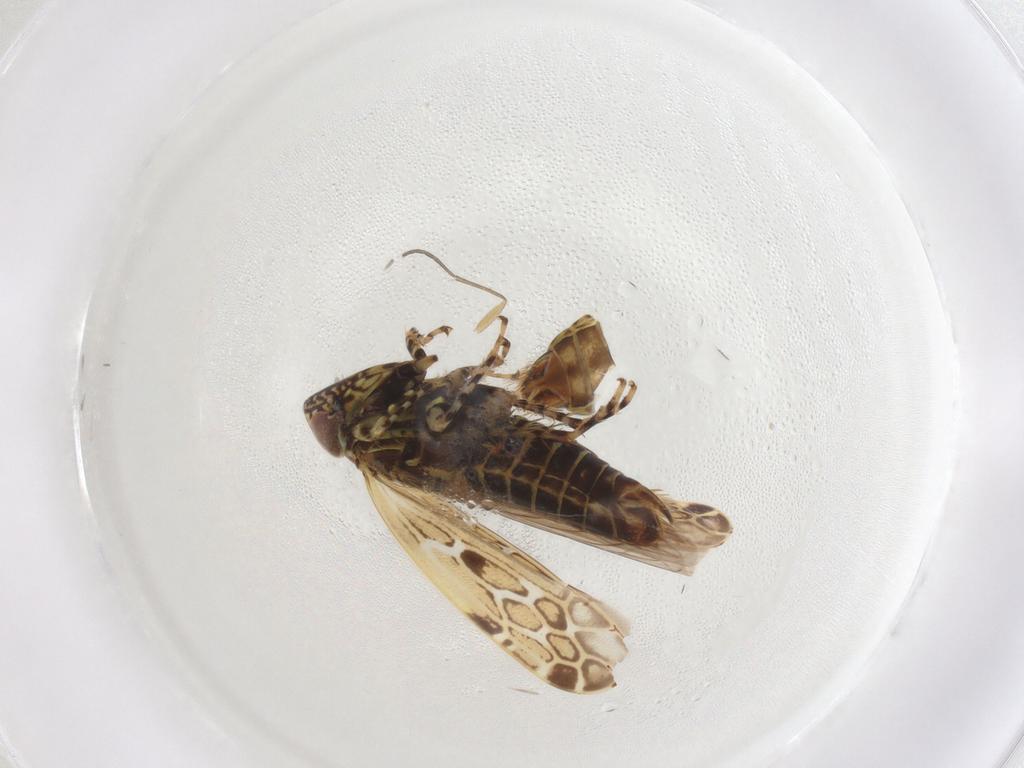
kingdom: Animalia
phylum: Arthropoda
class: Insecta
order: Hemiptera
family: Cicadellidae
